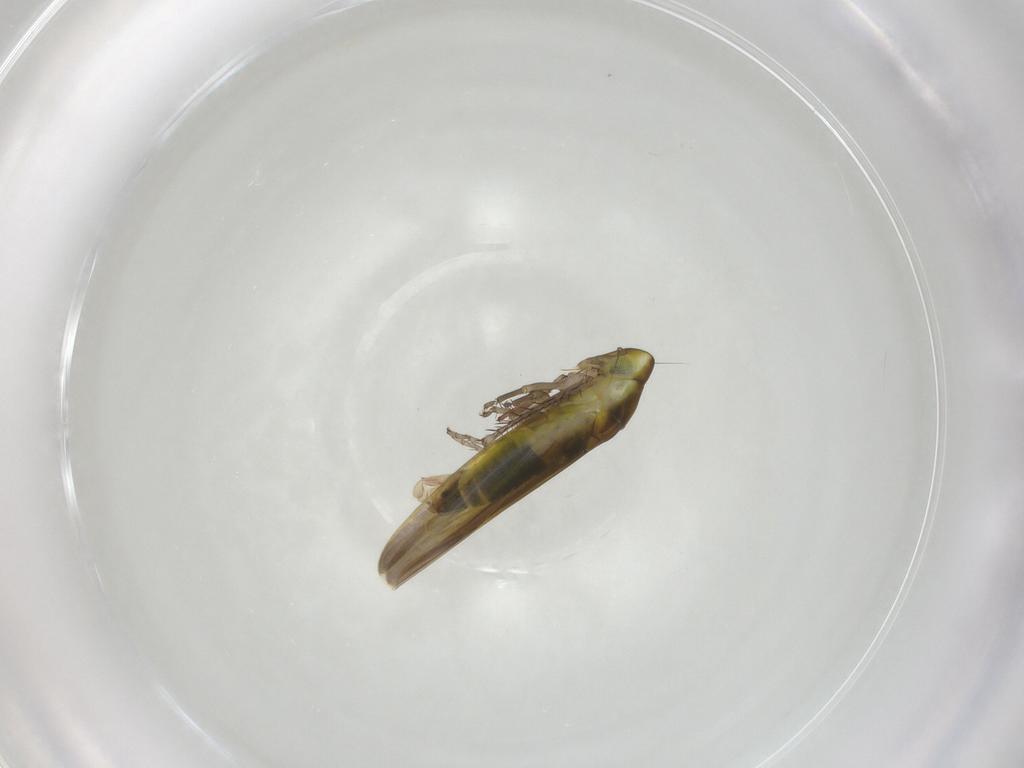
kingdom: Animalia
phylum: Arthropoda
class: Insecta
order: Hemiptera
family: Cicadellidae
